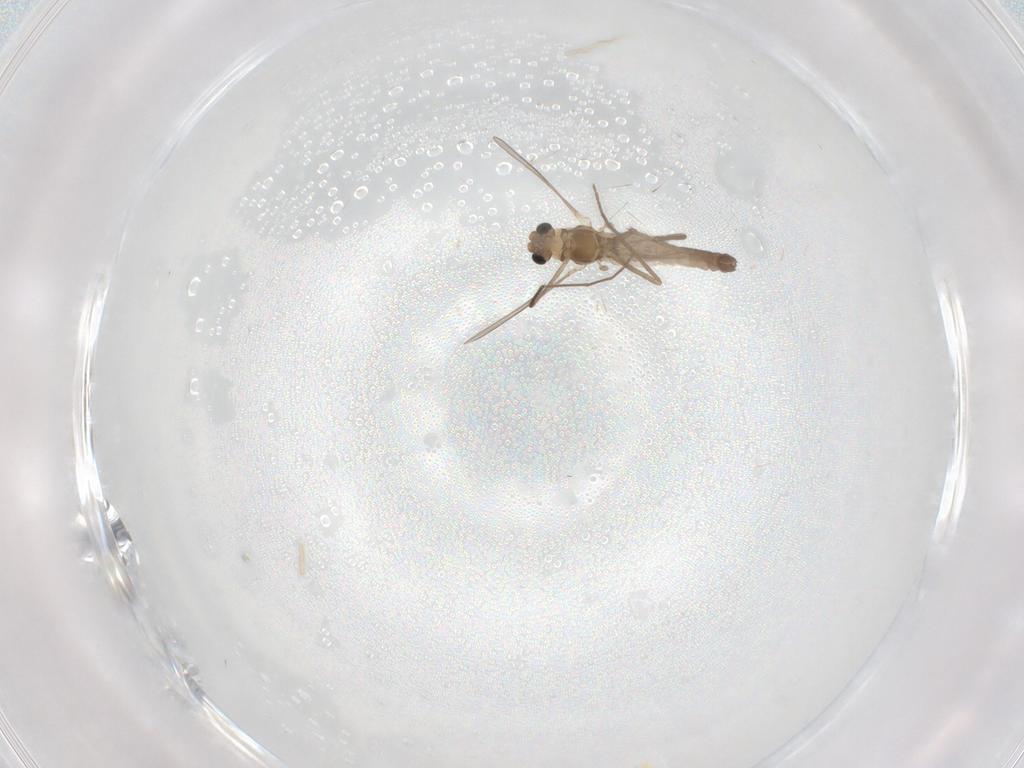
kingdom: Animalia
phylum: Arthropoda
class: Insecta
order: Diptera
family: Chironomidae
